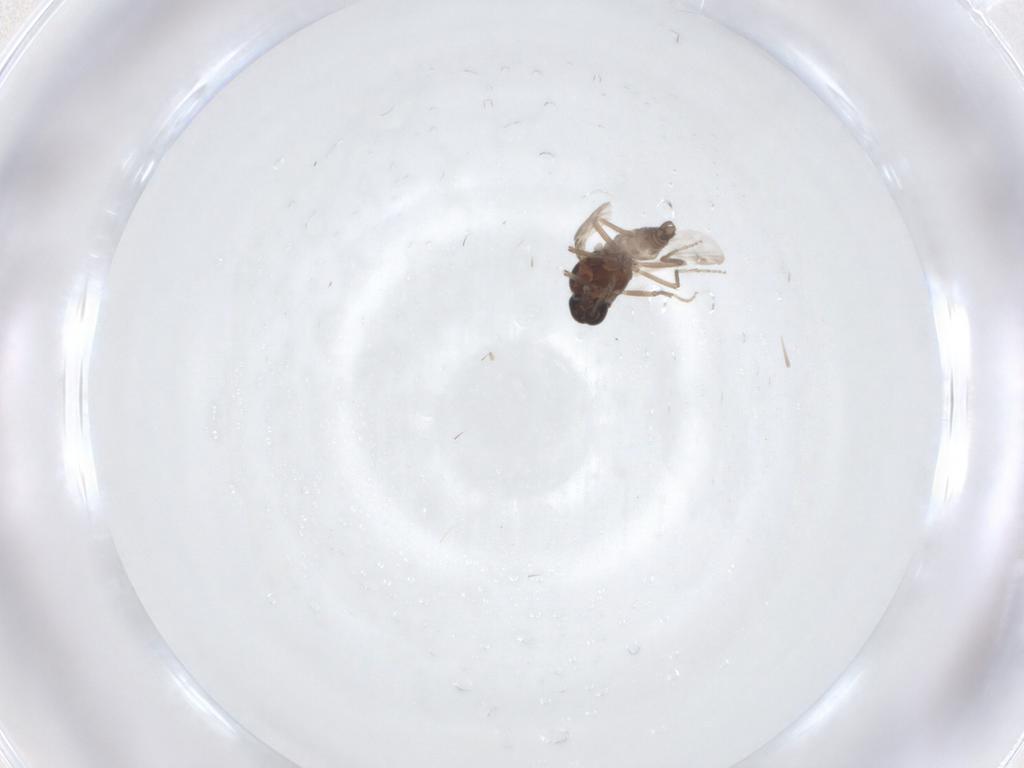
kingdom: Animalia
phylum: Arthropoda
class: Insecta
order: Diptera
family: Ceratopogonidae
